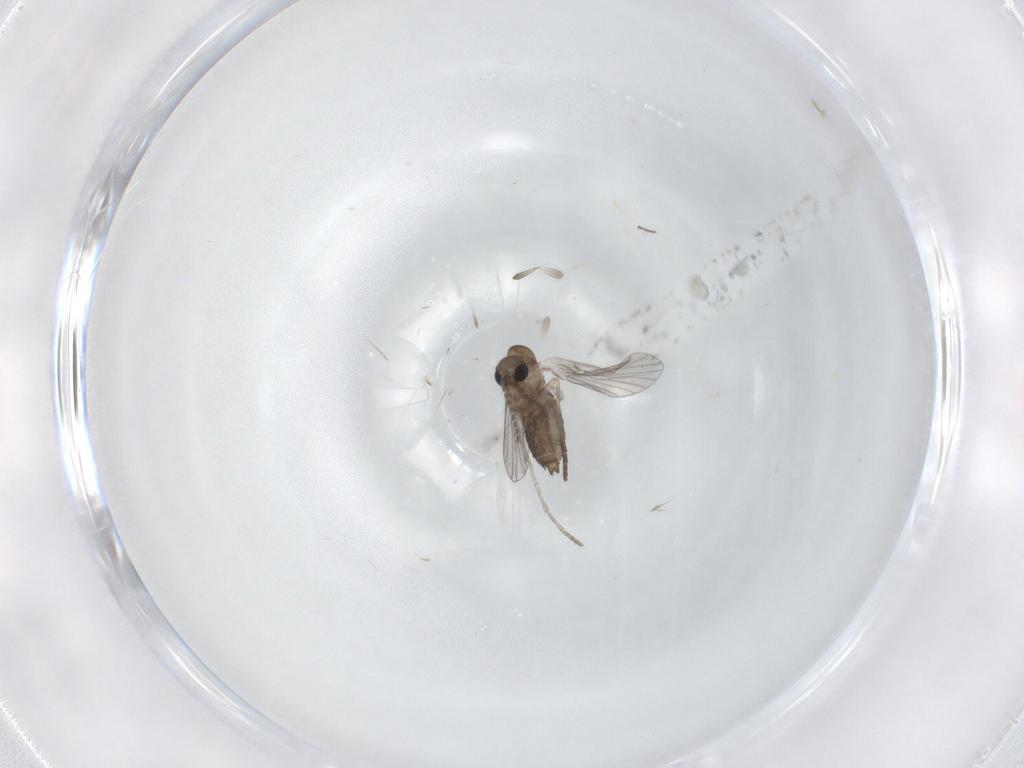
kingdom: Animalia
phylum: Arthropoda
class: Insecta
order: Diptera
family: Cecidomyiidae
